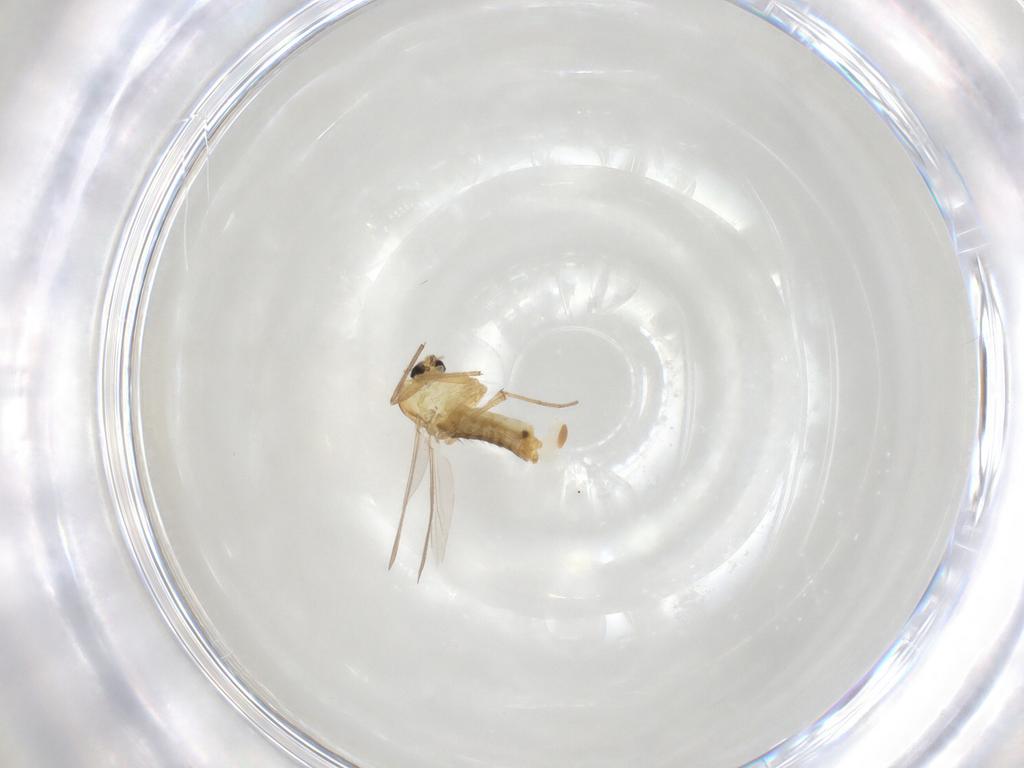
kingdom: Animalia
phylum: Arthropoda
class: Insecta
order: Diptera
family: Chironomidae
